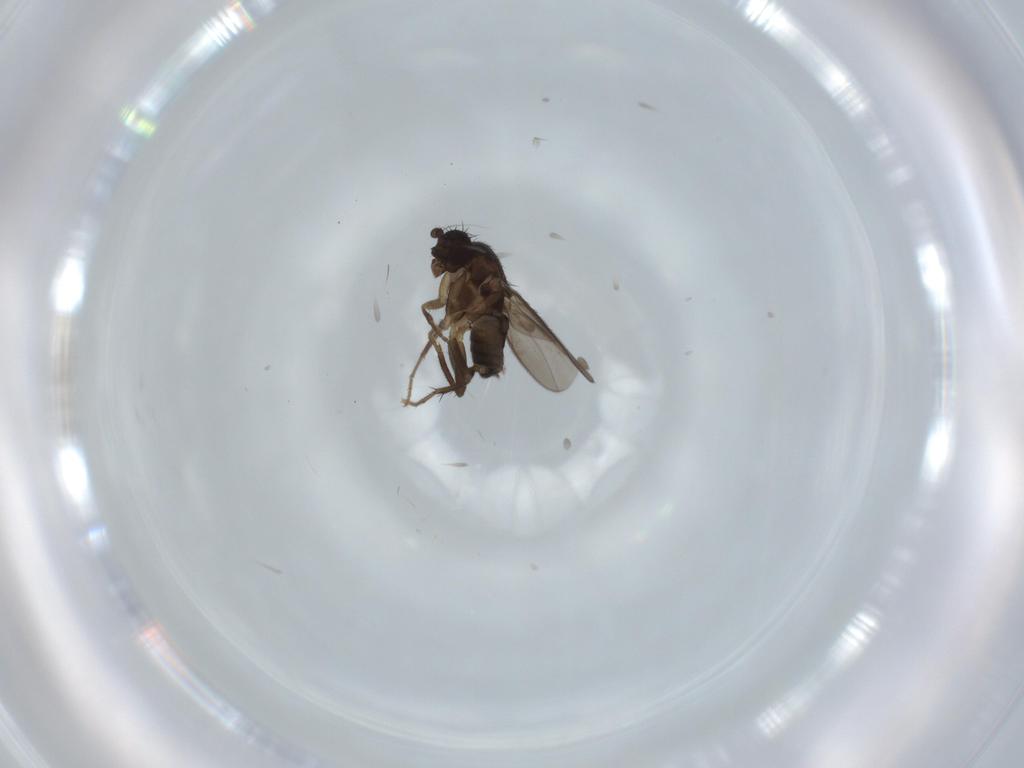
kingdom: Animalia
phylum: Arthropoda
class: Insecta
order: Diptera
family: Sphaeroceridae
